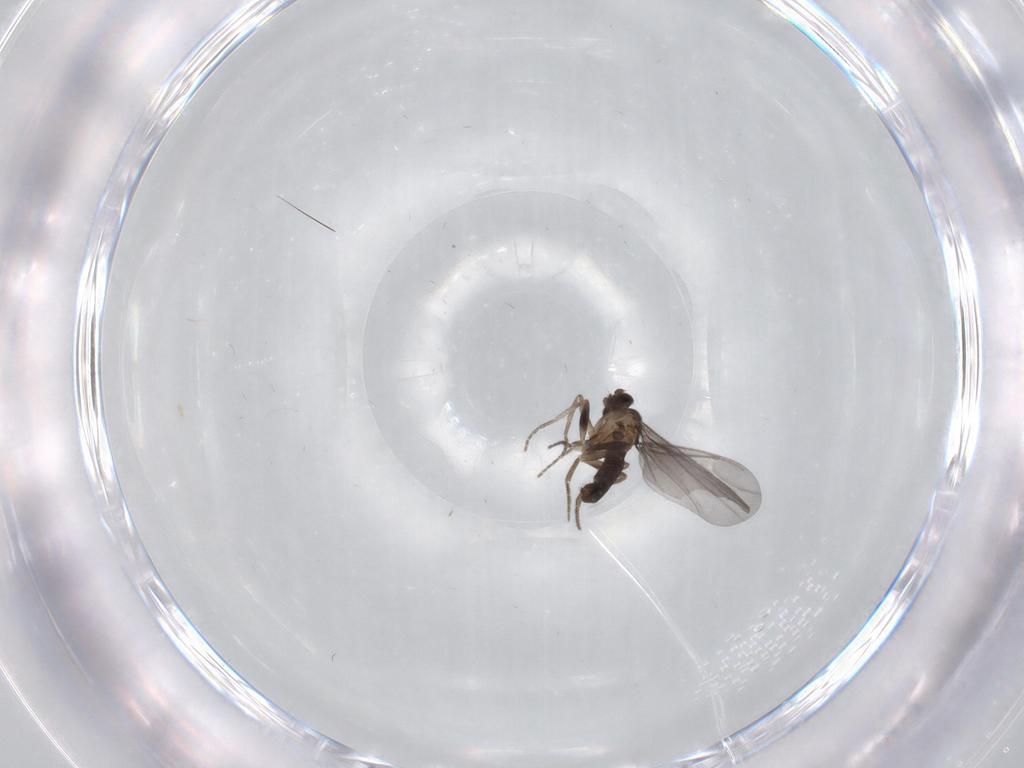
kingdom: Animalia
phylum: Arthropoda
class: Insecta
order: Diptera
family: Phoridae
